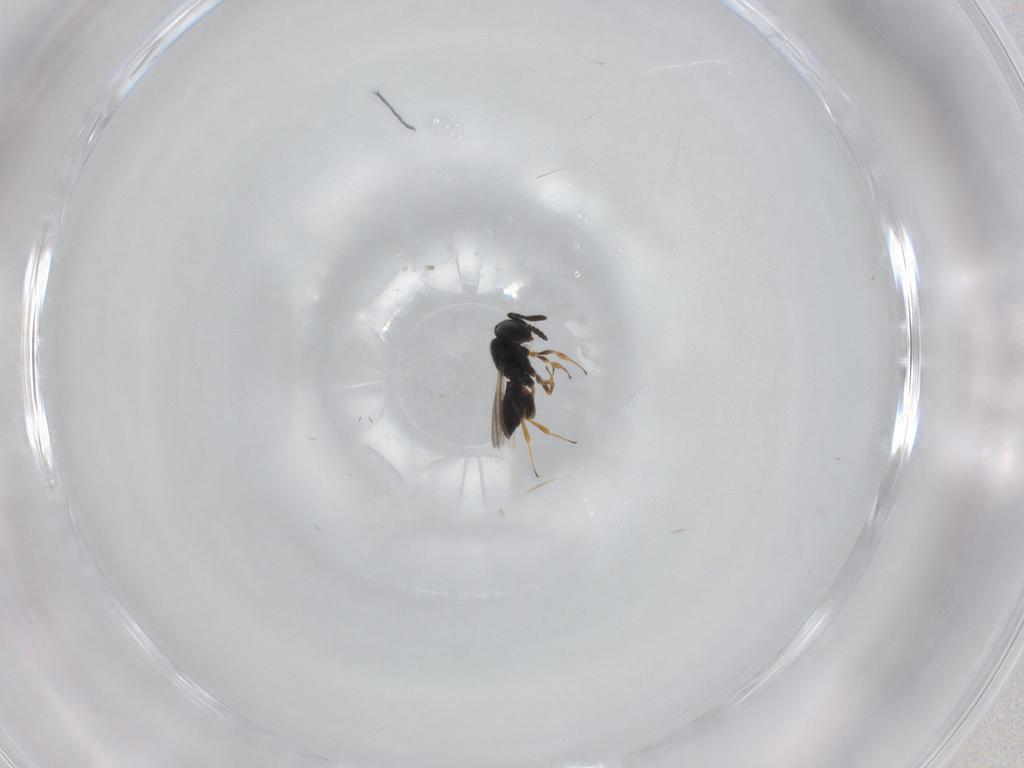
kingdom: Animalia
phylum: Arthropoda
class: Insecta
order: Hymenoptera
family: Scelionidae
